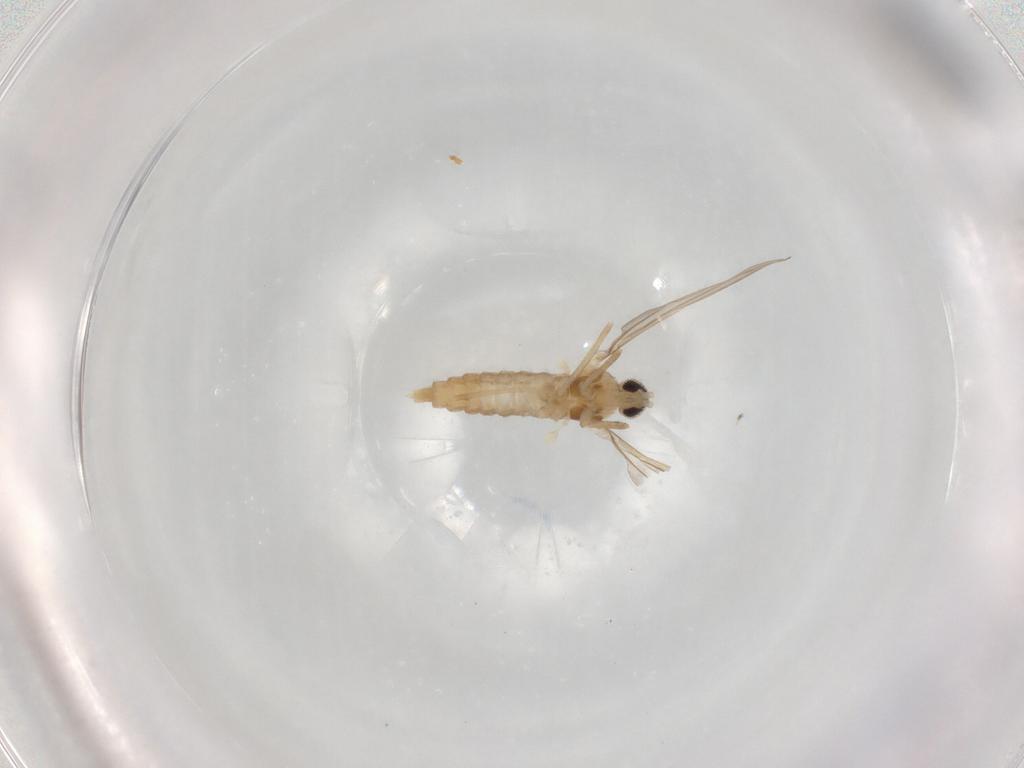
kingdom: Animalia
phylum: Arthropoda
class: Insecta
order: Diptera
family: Cecidomyiidae
